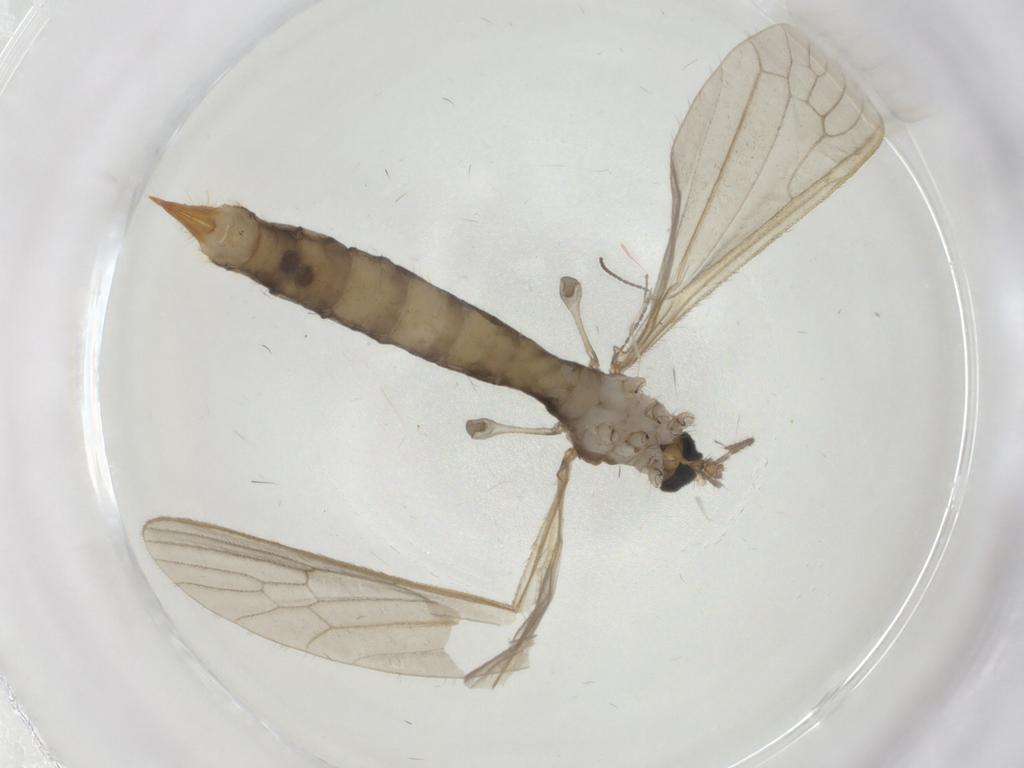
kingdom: Animalia
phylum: Arthropoda
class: Insecta
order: Diptera
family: Limoniidae
